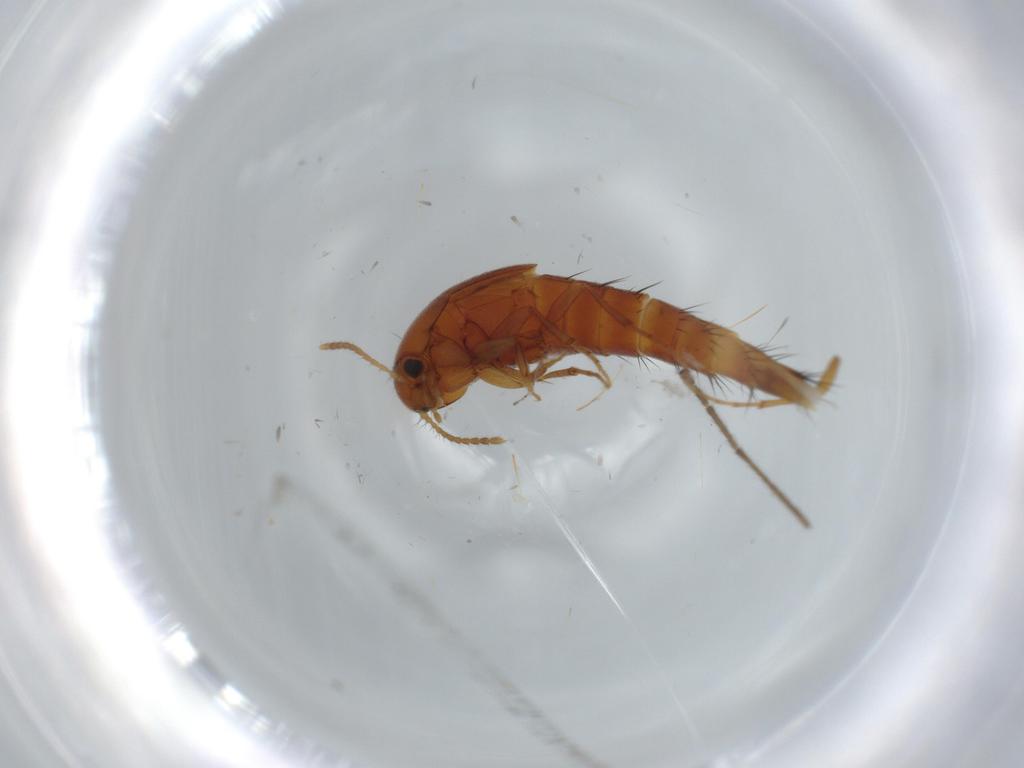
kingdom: Animalia
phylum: Arthropoda
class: Insecta
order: Coleoptera
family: Staphylinidae
